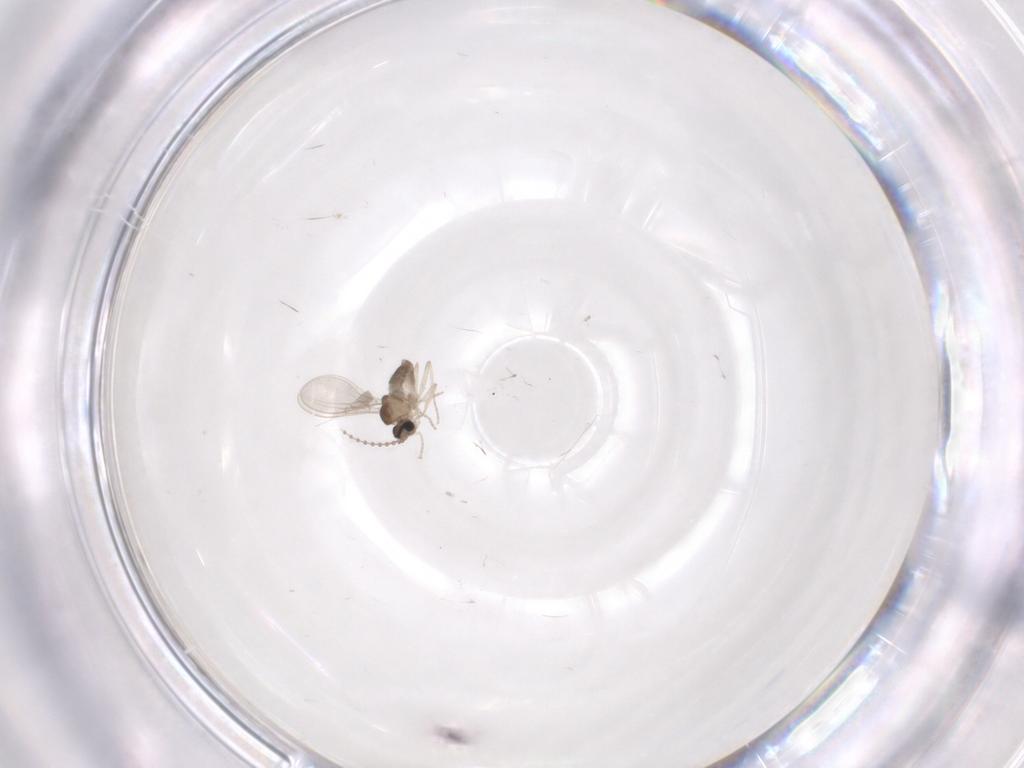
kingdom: Animalia
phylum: Arthropoda
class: Insecta
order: Diptera
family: Cecidomyiidae
